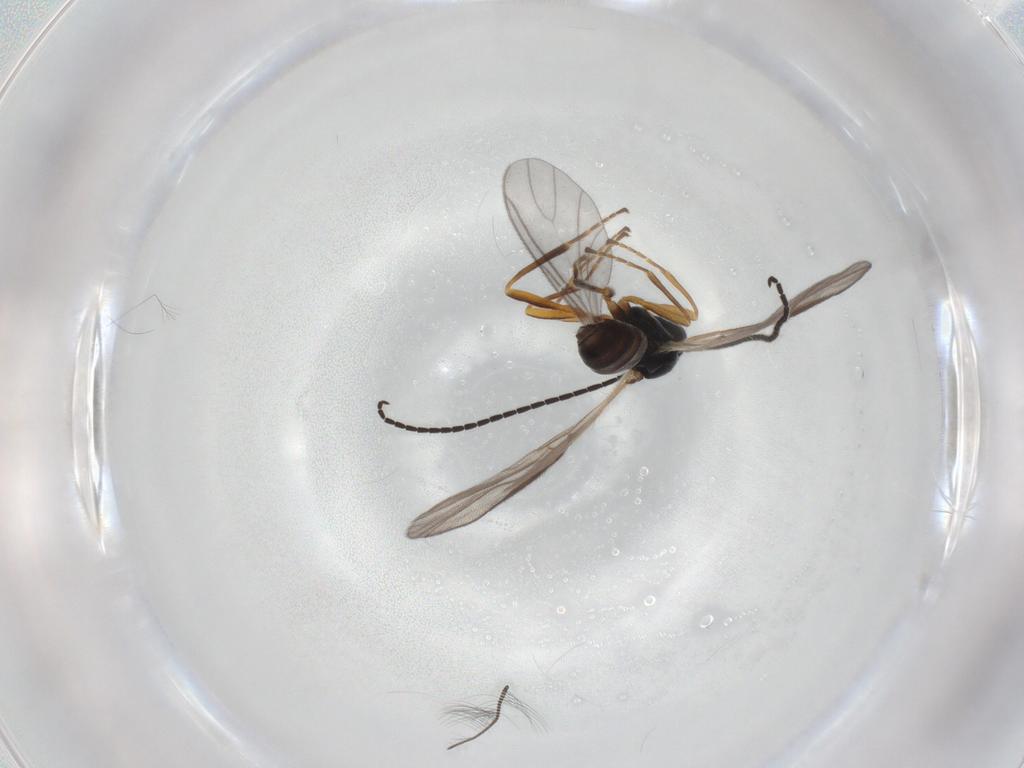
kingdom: Animalia
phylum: Arthropoda
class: Insecta
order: Hymenoptera
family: Braconidae
